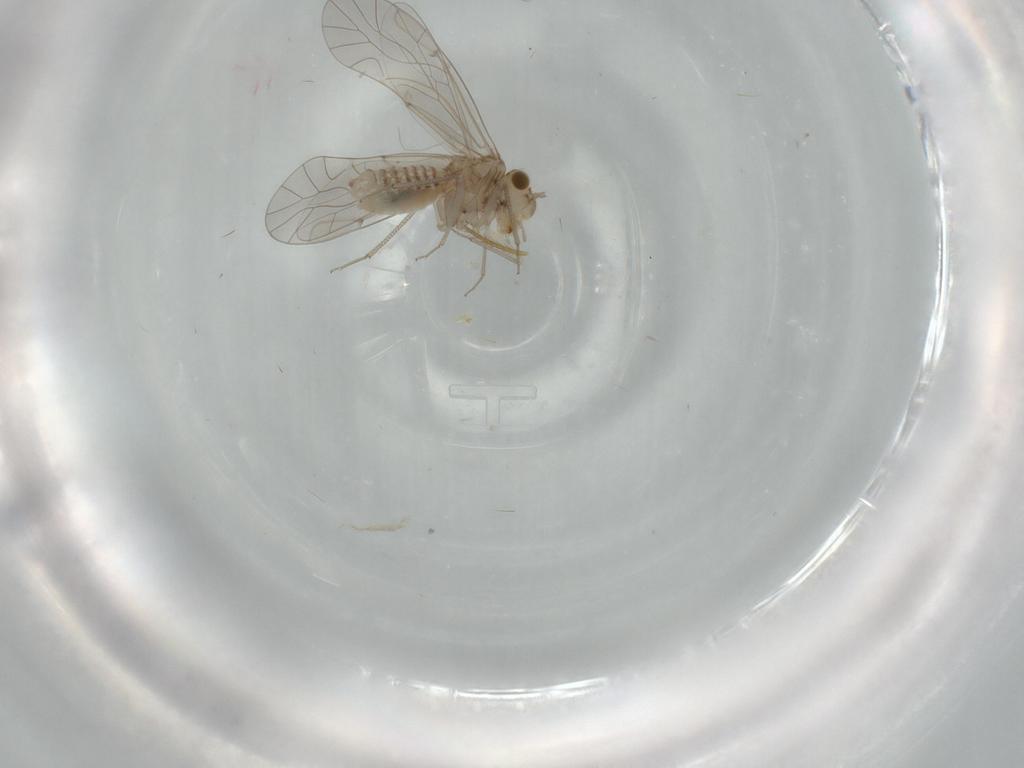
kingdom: Animalia
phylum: Arthropoda
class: Insecta
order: Psocodea
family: Lachesillidae
